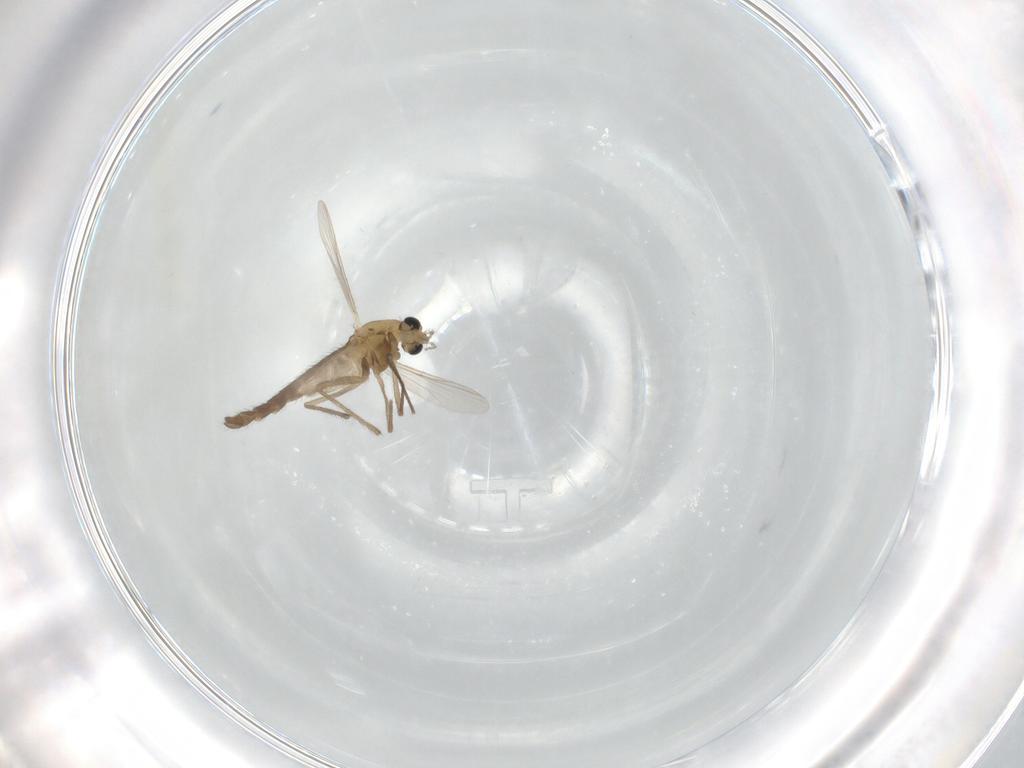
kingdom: Animalia
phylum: Arthropoda
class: Insecta
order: Diptera
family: Chironomidae
